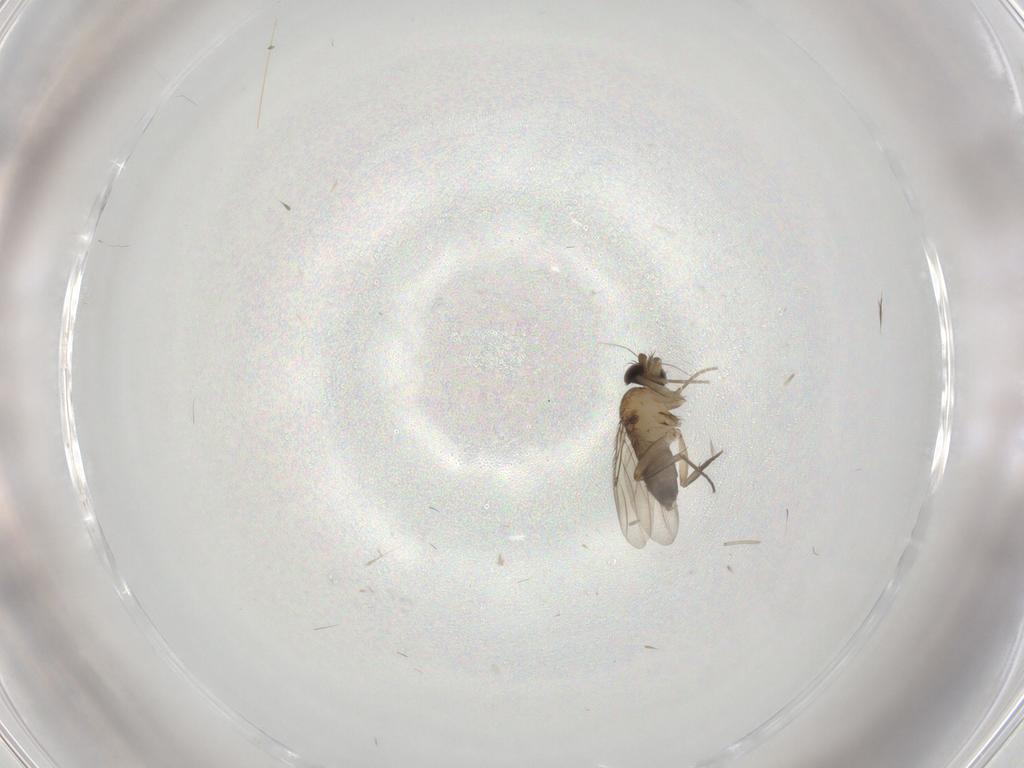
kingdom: Animalia
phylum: Arthropoda
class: Insecta
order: Diptera
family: Phoridae
